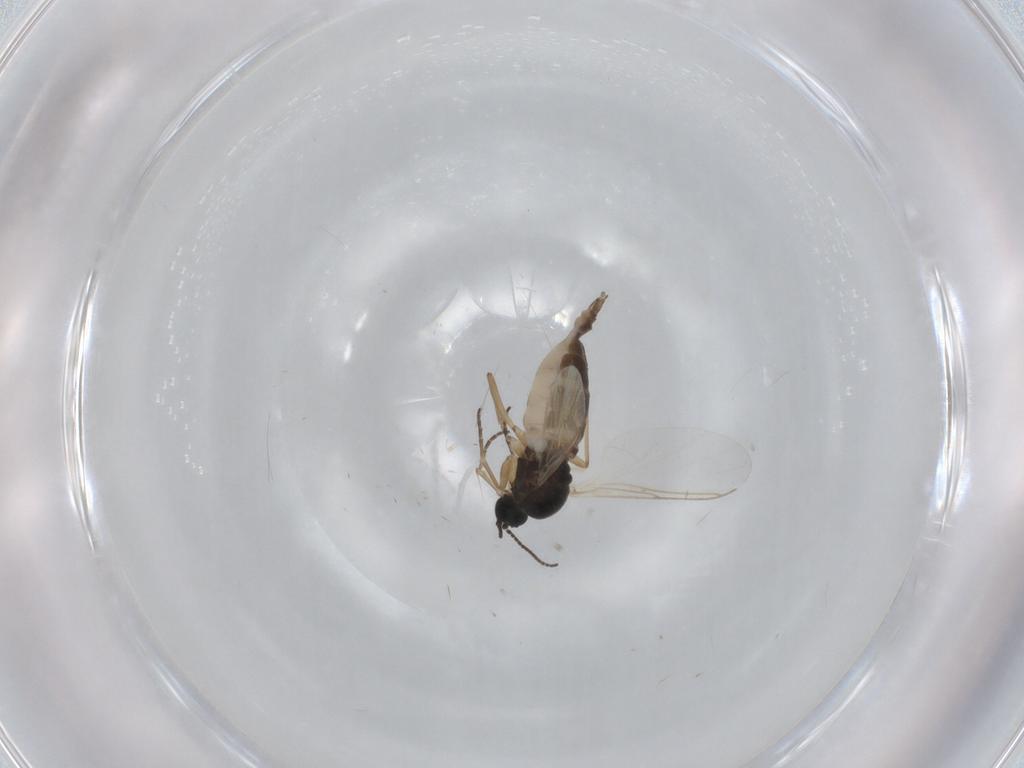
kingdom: Animalia
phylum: Arthropoda
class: Insecta
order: Diptera
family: Sciaridae
